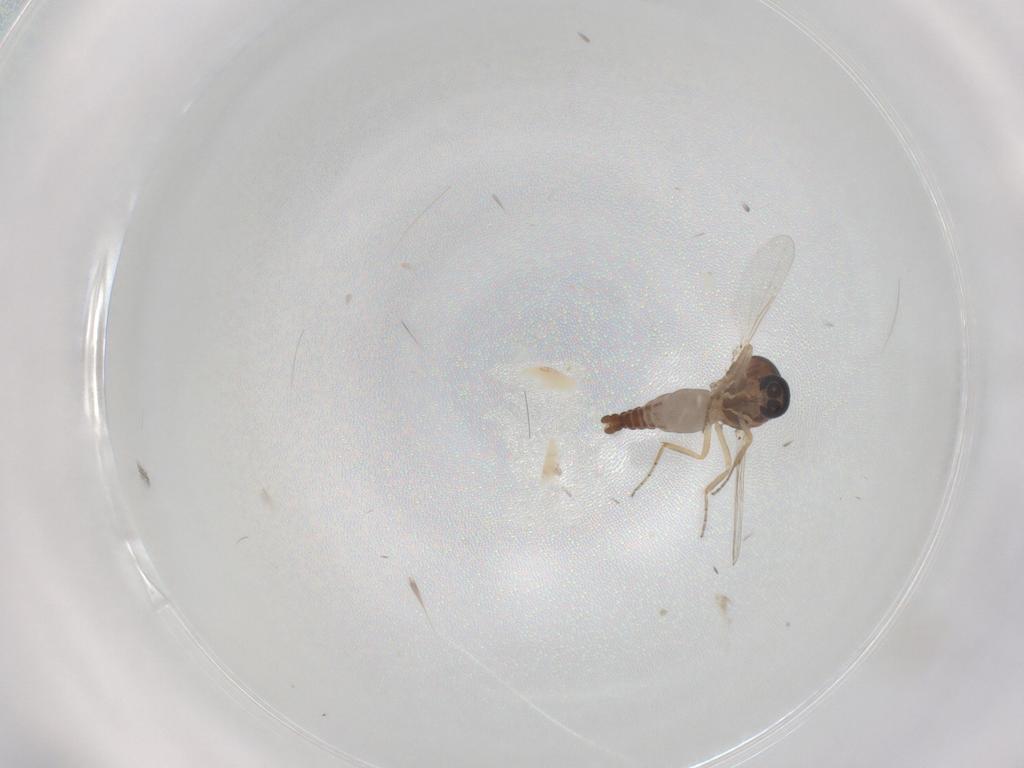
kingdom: Animalia
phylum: Arthropoda
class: Insecta
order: Diptera
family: Ceratopogonidae
